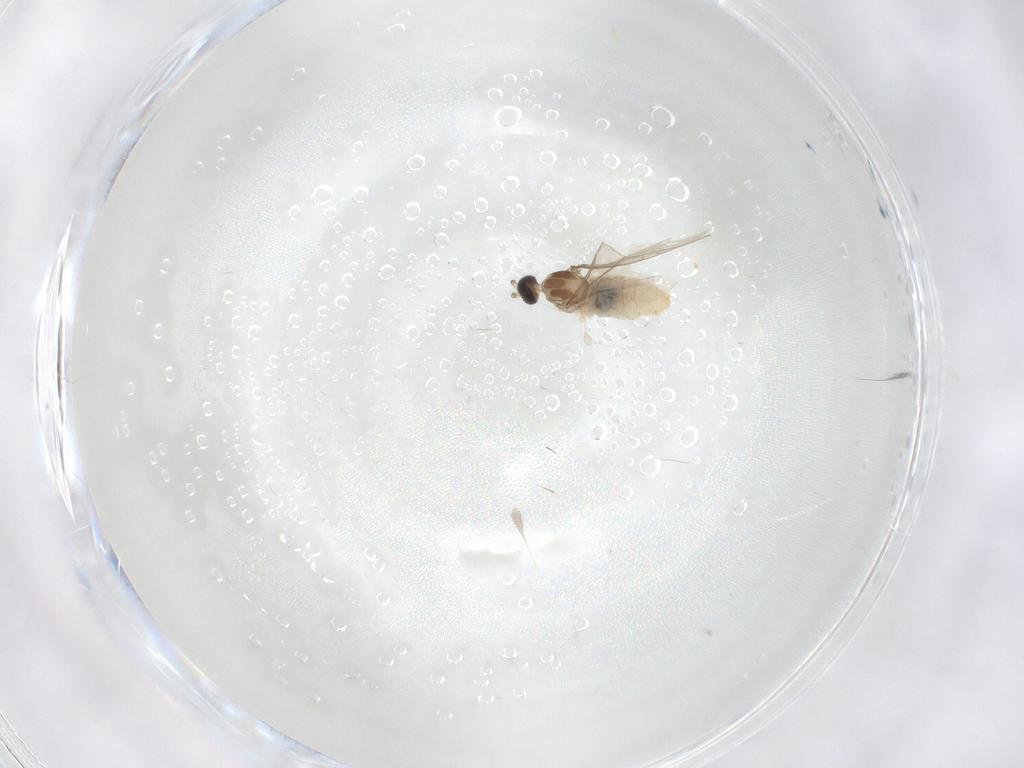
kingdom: Animalia
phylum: Arthropoda
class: Insecta
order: Diptera
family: Cecidomyiidae
